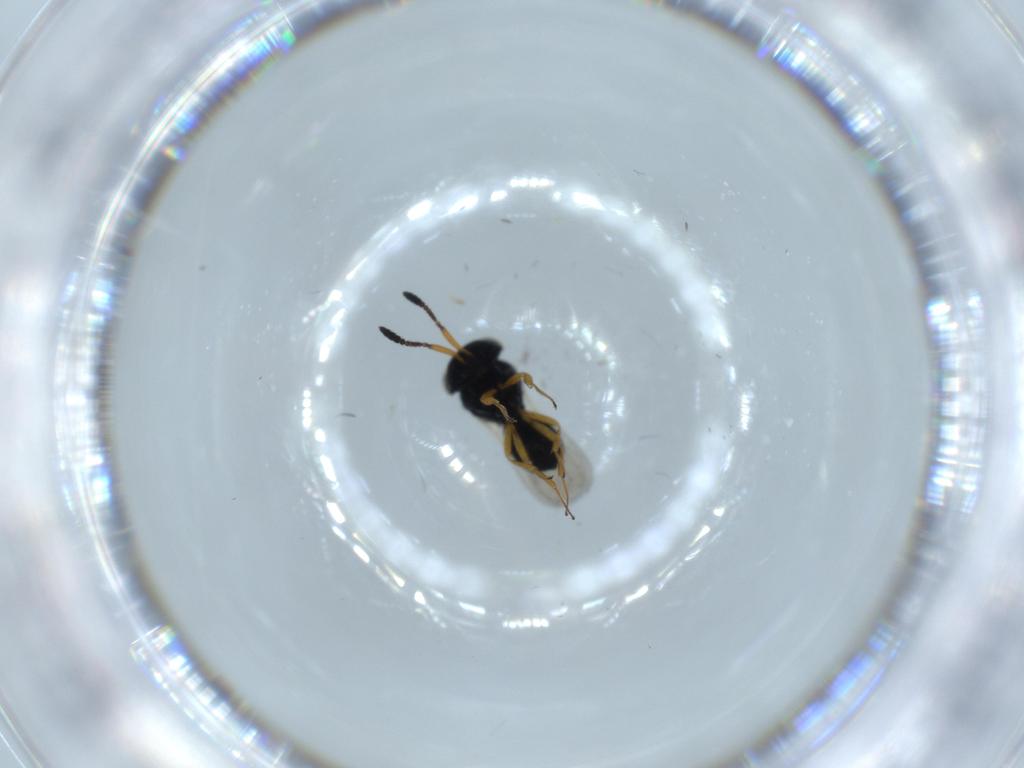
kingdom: Animalia
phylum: Arthropoda
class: Insecta
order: Hymenoptera
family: Scelionidae
